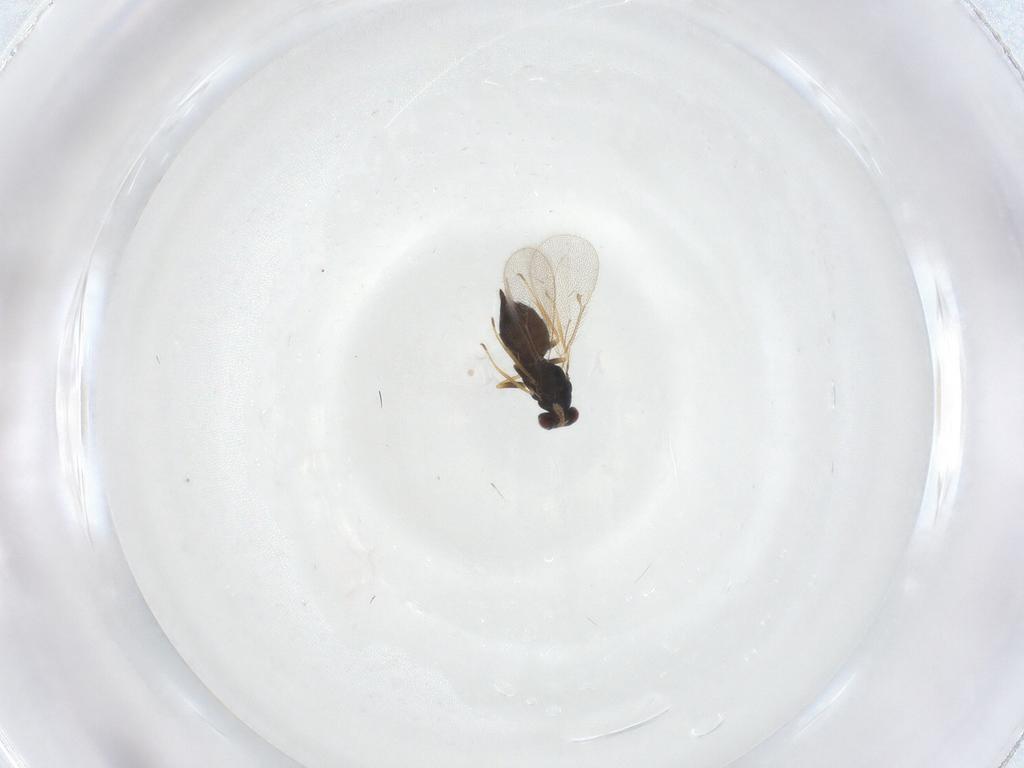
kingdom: Animalia
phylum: Arthropoda
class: Insecta
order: Hymenoptera
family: Eulophidae
